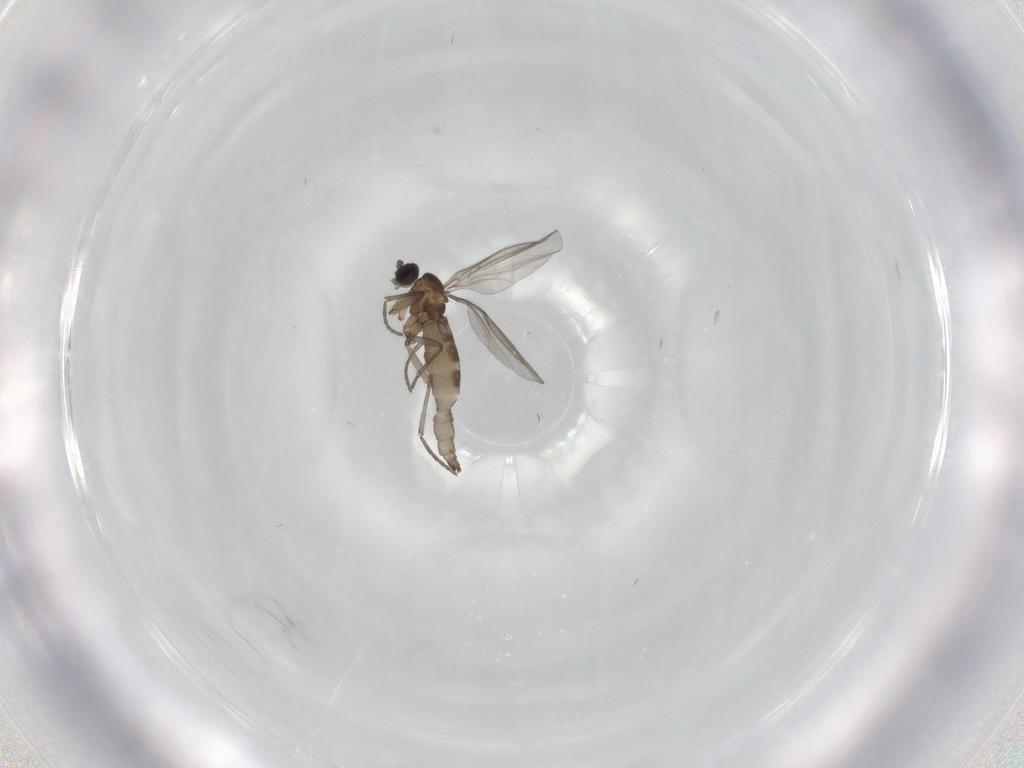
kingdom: Animalia
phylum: Arthropoda
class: Insecta
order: Diptera
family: Sciaridae
